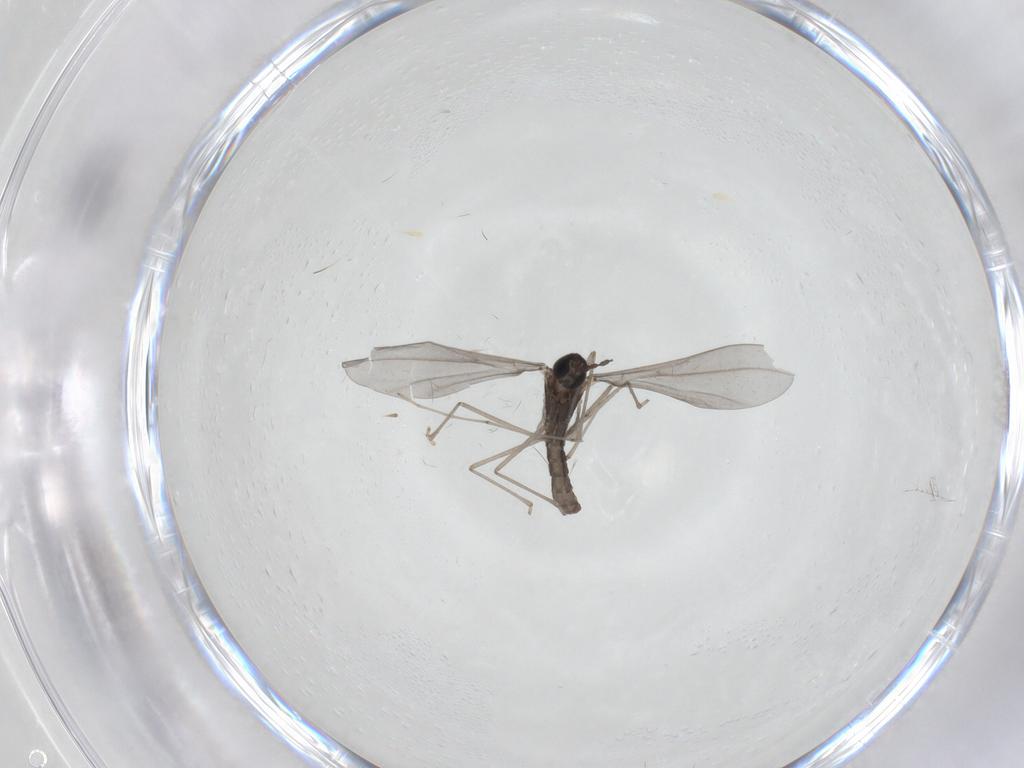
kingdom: Animalia
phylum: Arthropoda
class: Insecta
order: Diptera
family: Cecidomyiidae
